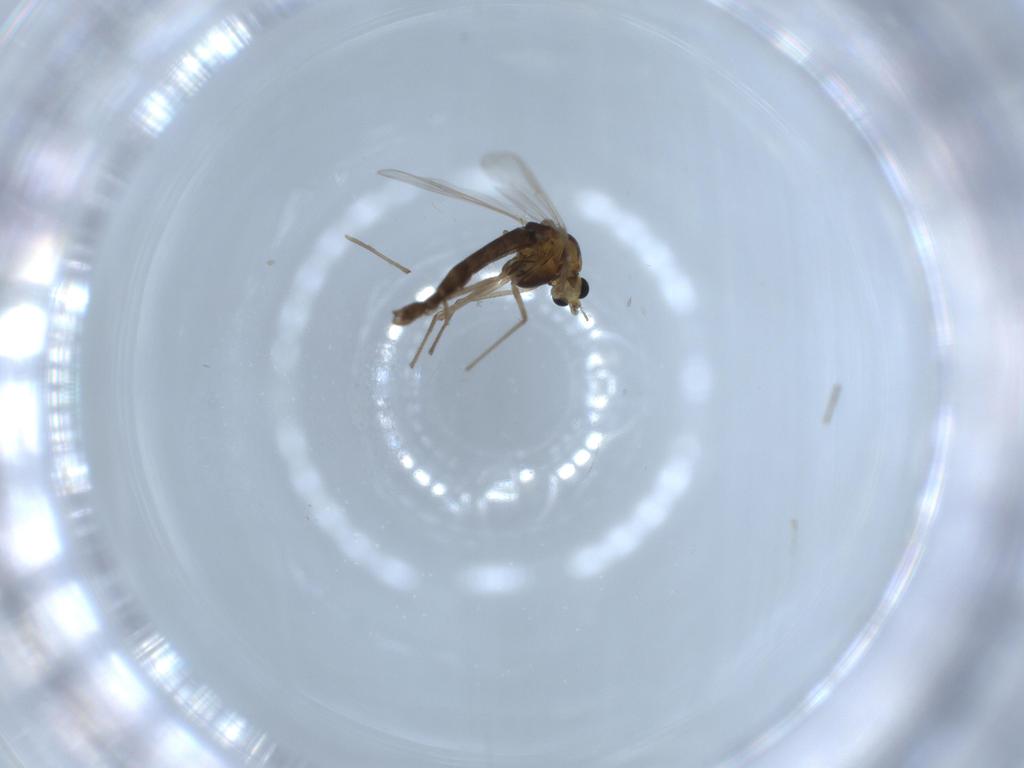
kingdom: Animalia
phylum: Arthropoda
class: Insecta
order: Diptera
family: Chironomidae
